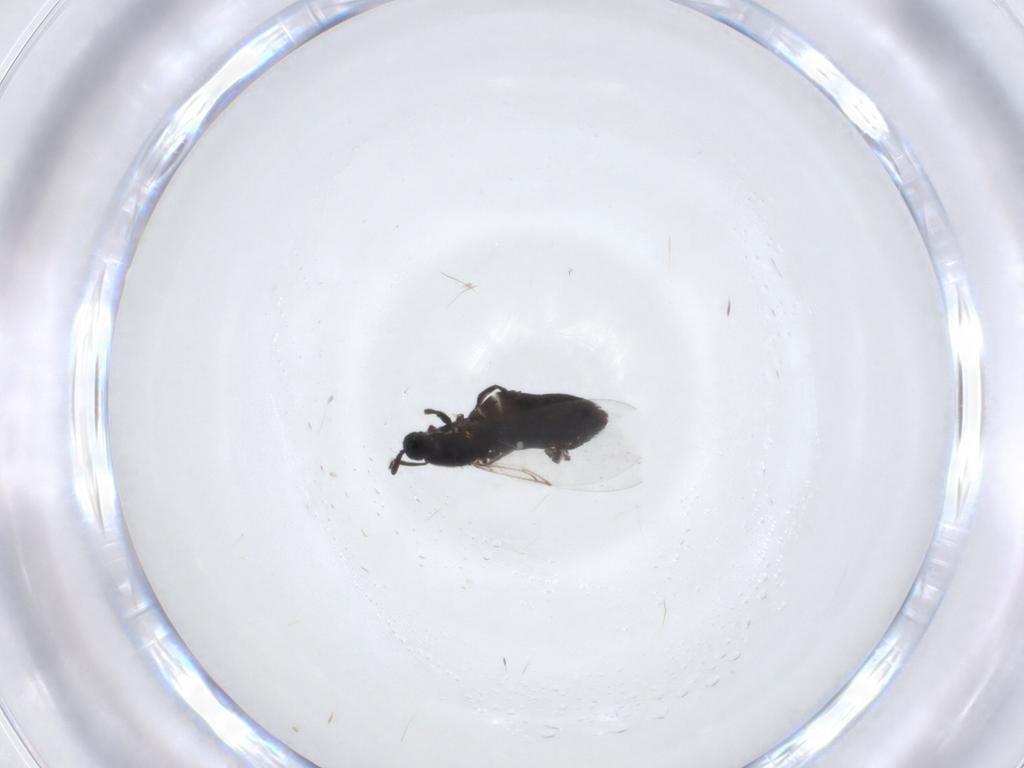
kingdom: Animalia
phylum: Arthropoda
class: Insecta
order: Diptera
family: Scatopsidae
